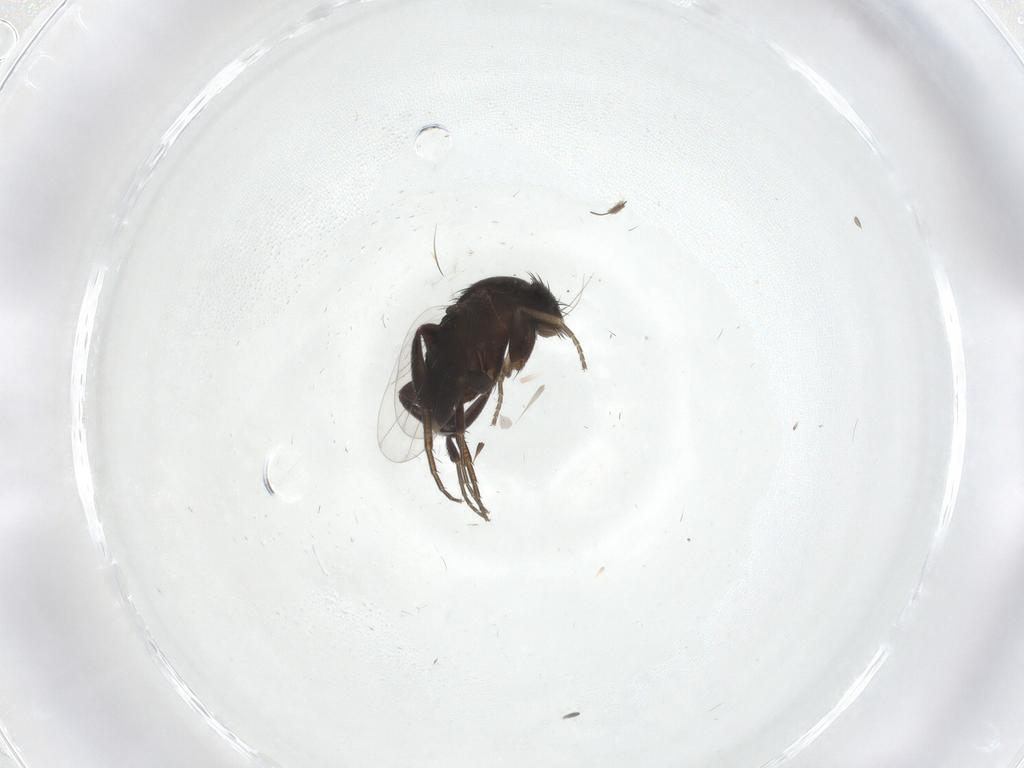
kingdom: Animalia
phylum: Arthropoda
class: Insecta
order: Diptera
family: Phoridae
